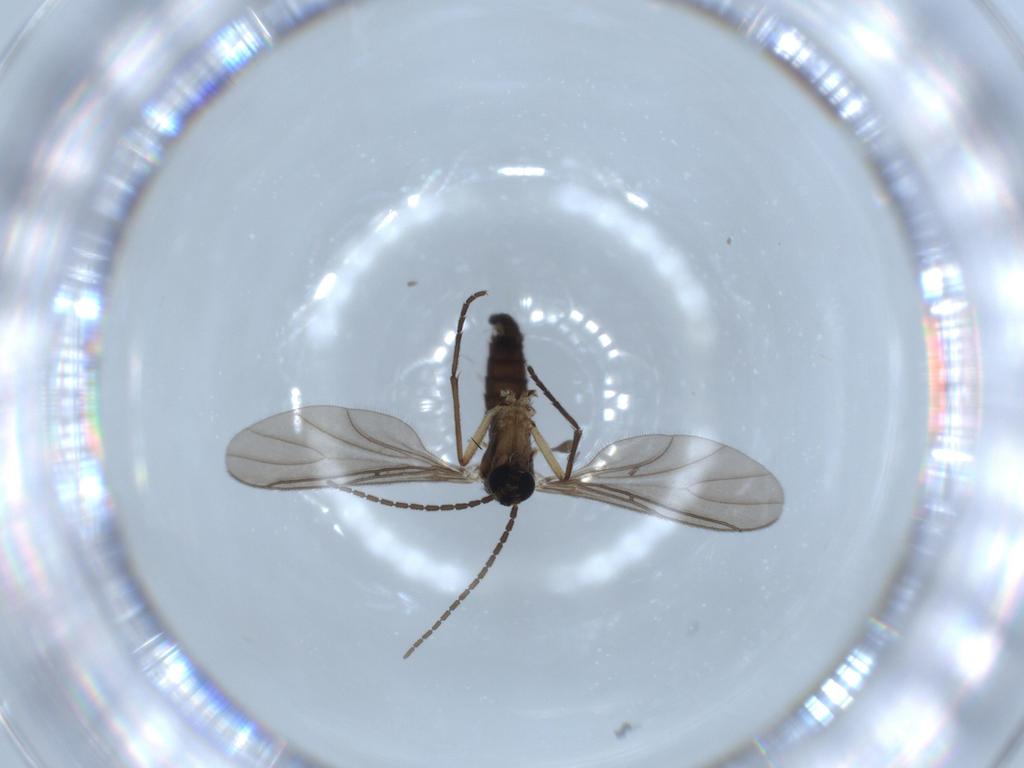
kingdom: Animalia
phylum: Arthropoda
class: Insecta
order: Diptera
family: Sciaridae
